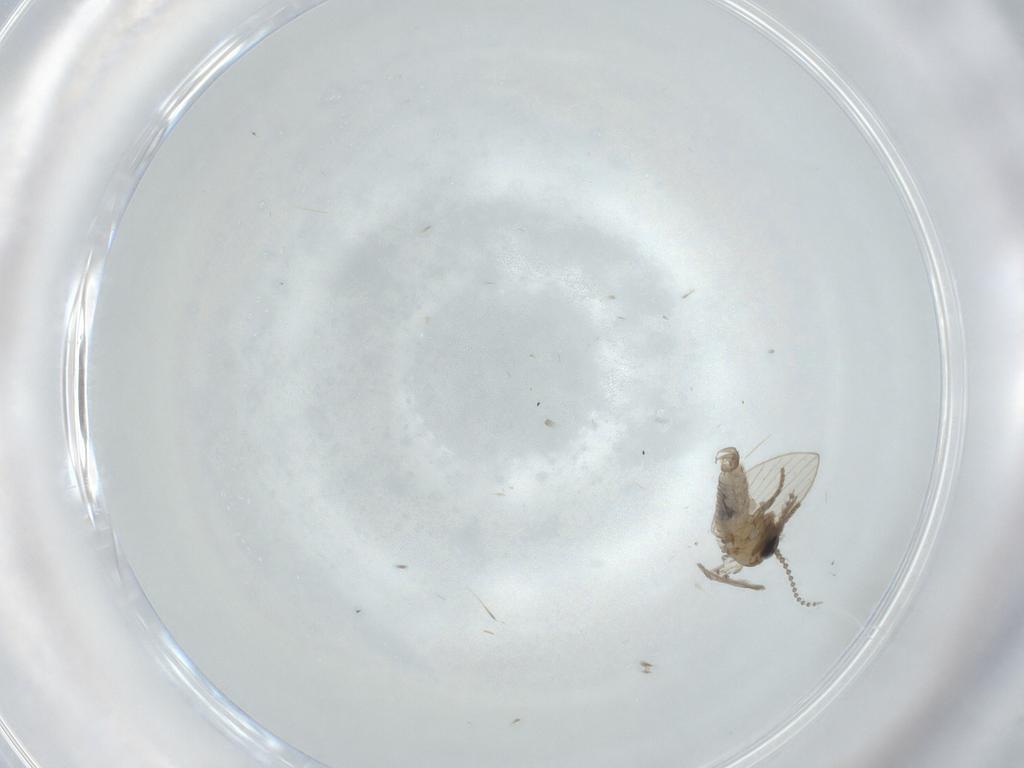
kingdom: Animalia
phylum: Arthropoda
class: Insecta
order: Diptera
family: Psychodidae
